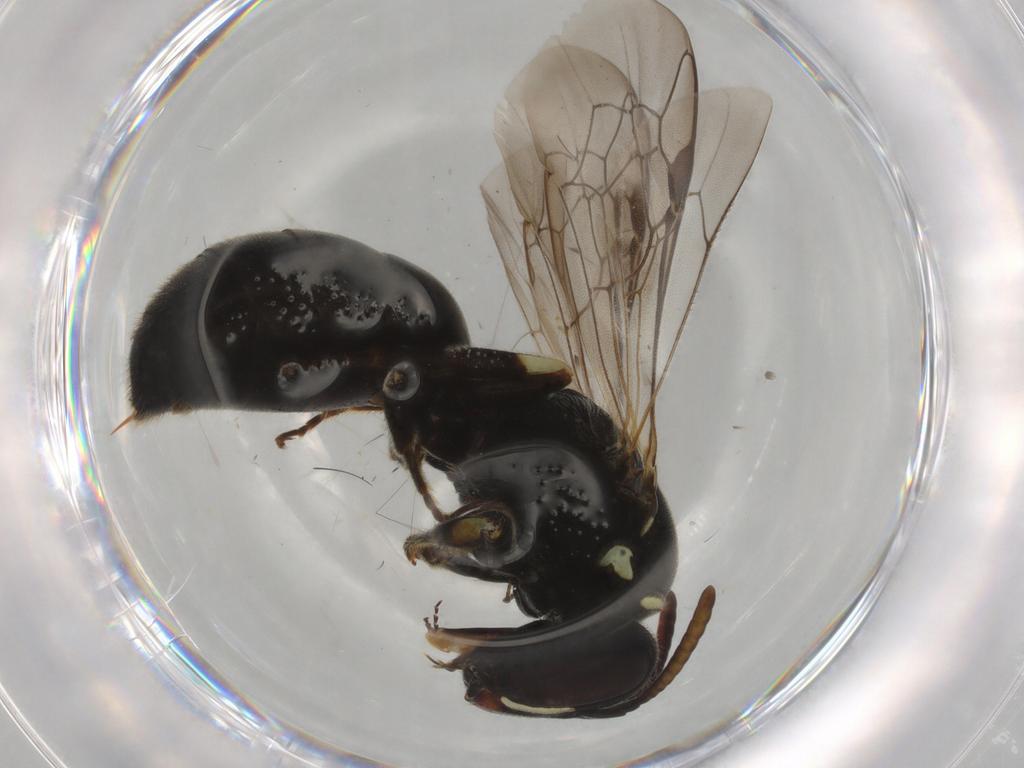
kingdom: Animalia
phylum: Arthropoda
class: Insecta
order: Hymenoptera
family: Colletidae
